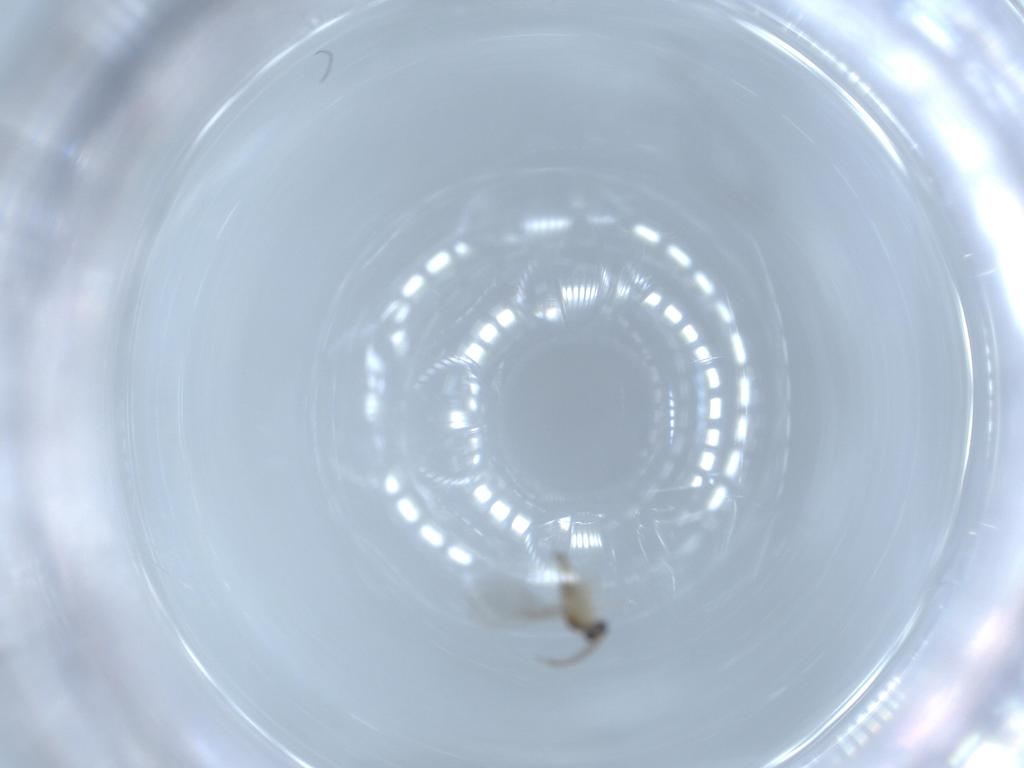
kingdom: Animalia
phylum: Arthropoda
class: Insecta
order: Diptera
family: Cecidomyiidae
